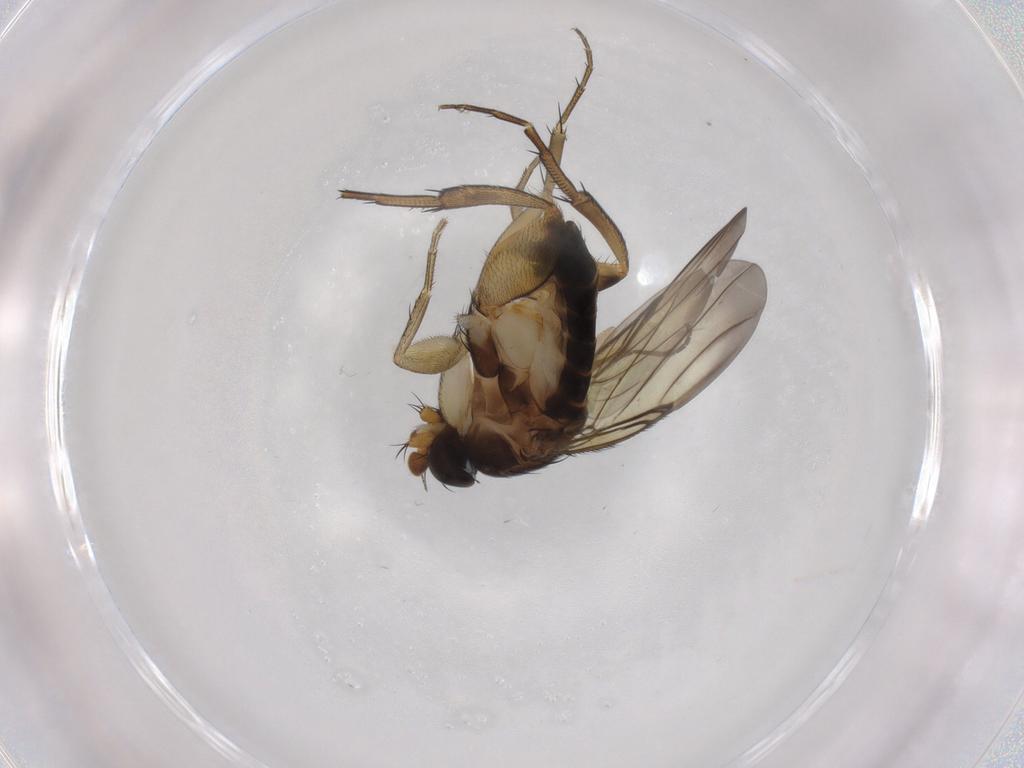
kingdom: Animalia
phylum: Arthropoda
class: Insecta
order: Diptera
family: Phoridae
